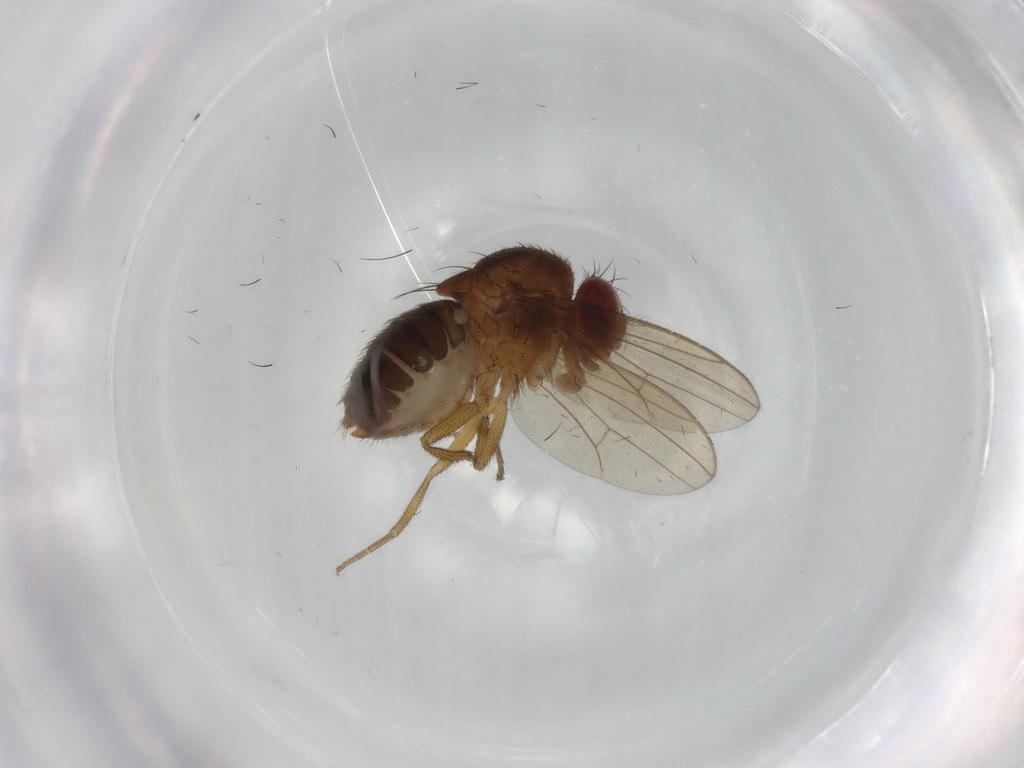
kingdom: Animalia
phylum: Arthropoda
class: Insecta
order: Diptera
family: Drosophilidae
